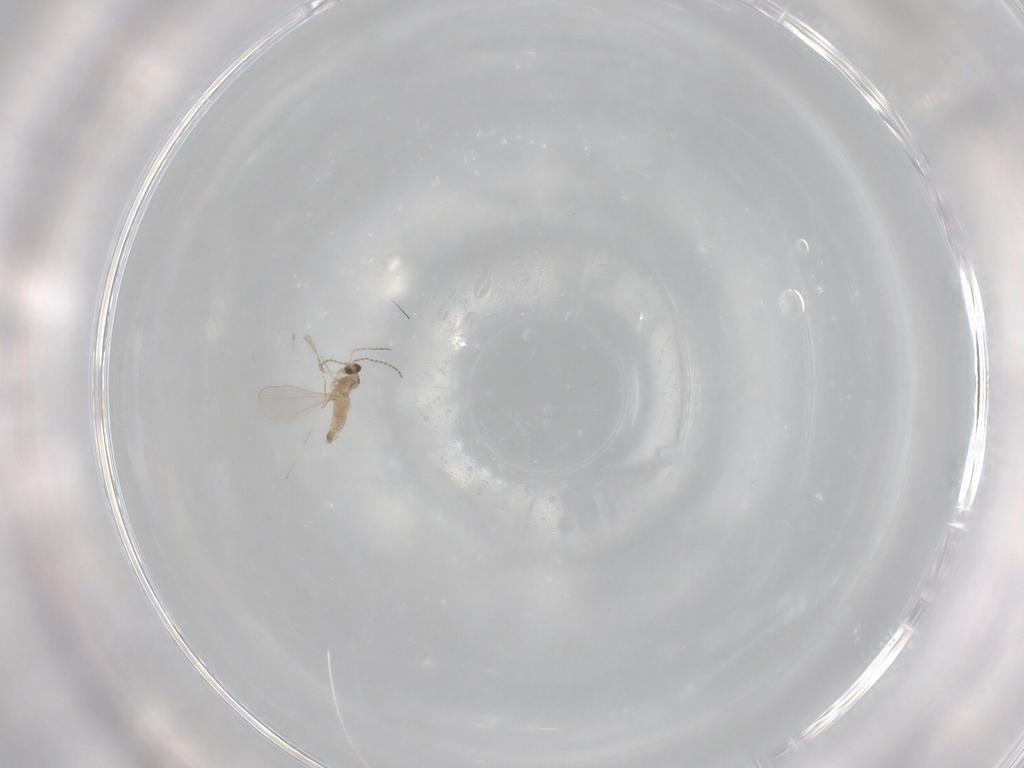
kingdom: Animalia
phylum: Arthropoda
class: Insecta
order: Diptera
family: Cecidomyiidae
